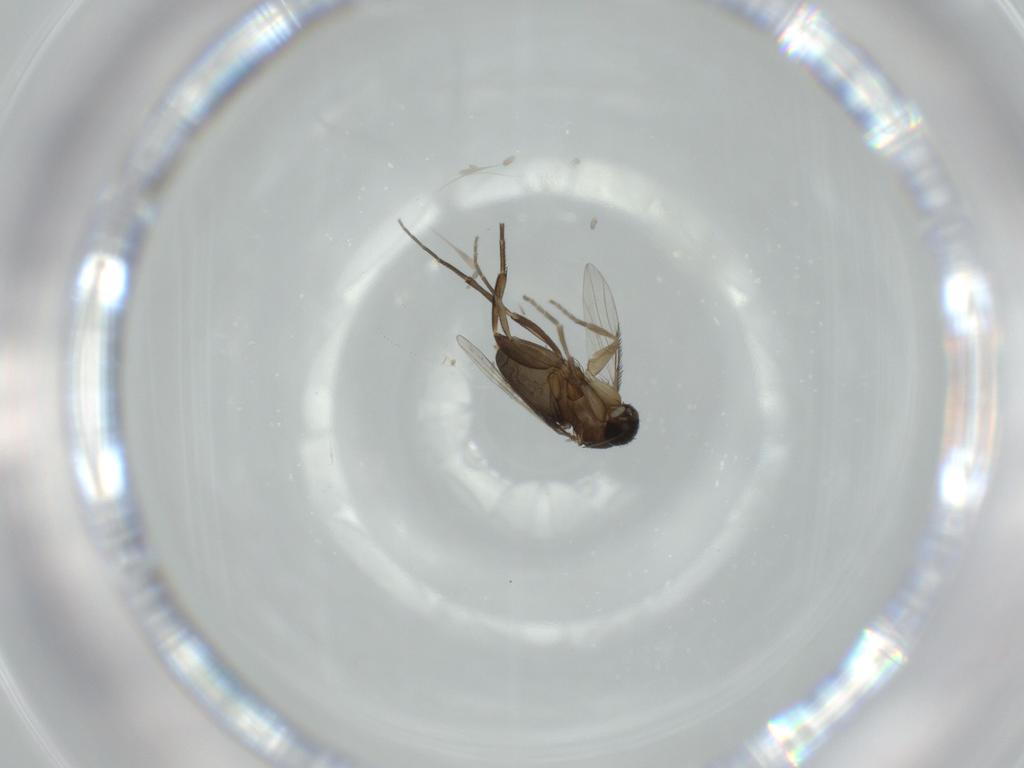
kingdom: Animalia
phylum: Arthropoda
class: Insecta
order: Diptera
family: Phoridae
